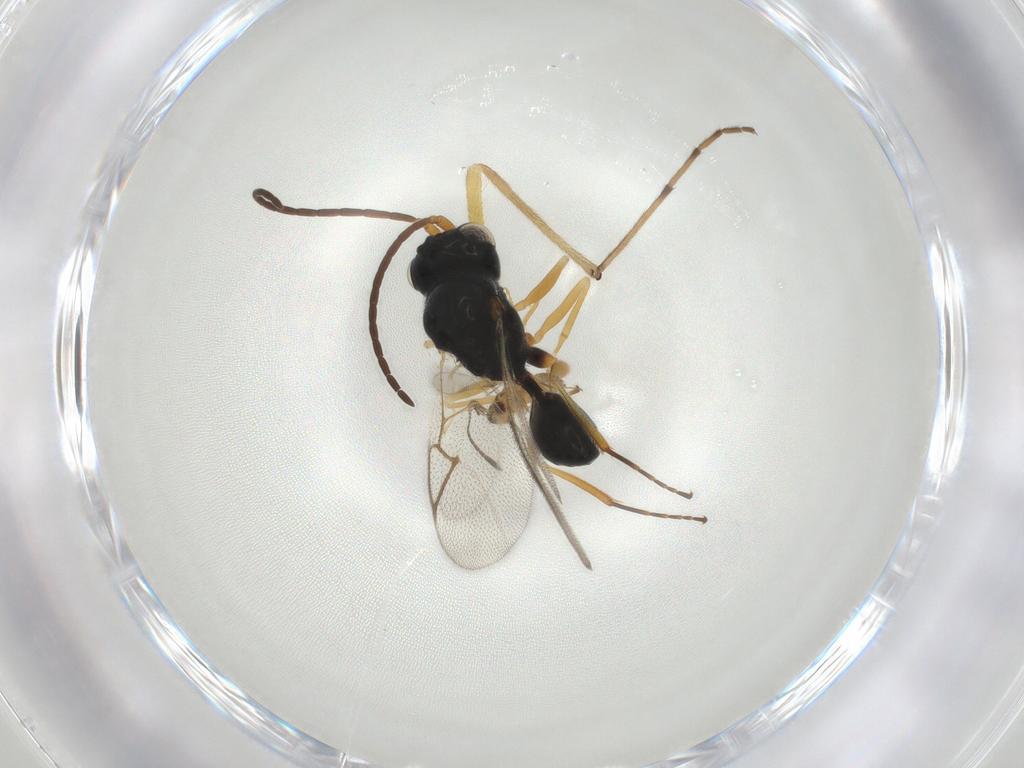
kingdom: Animalia
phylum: Arthropoda
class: Insecta
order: Hymenoptera
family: Figitidae
